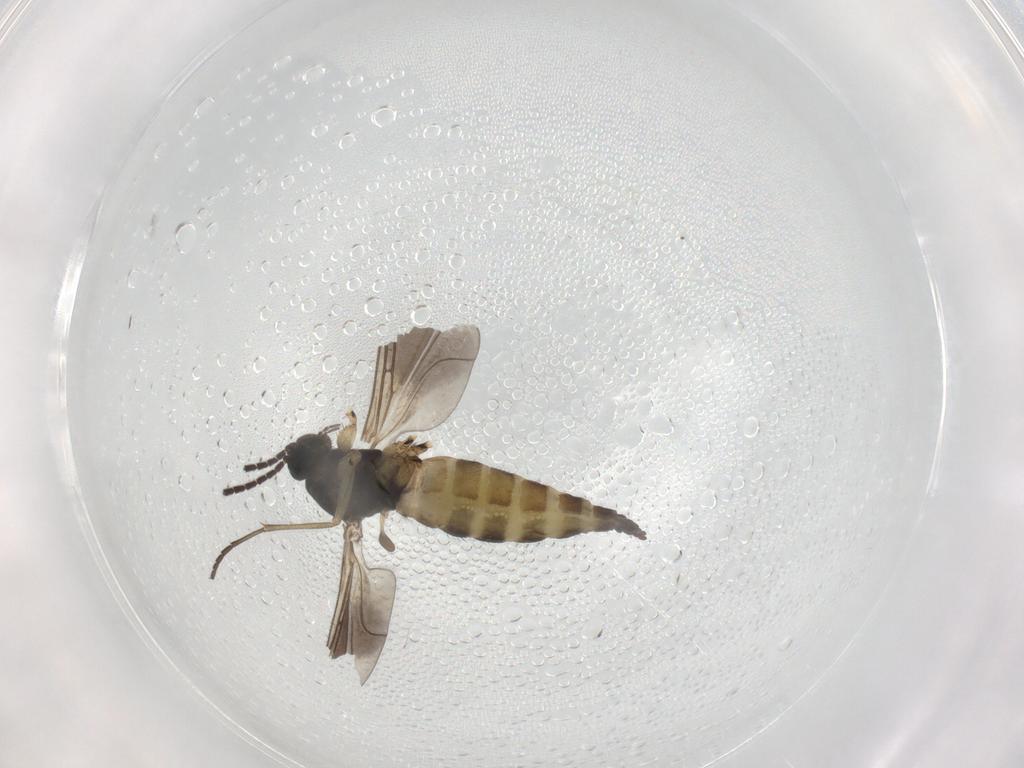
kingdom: Animalia
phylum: Arthropoda
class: Insecta
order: Diptera
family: Sciaridae
